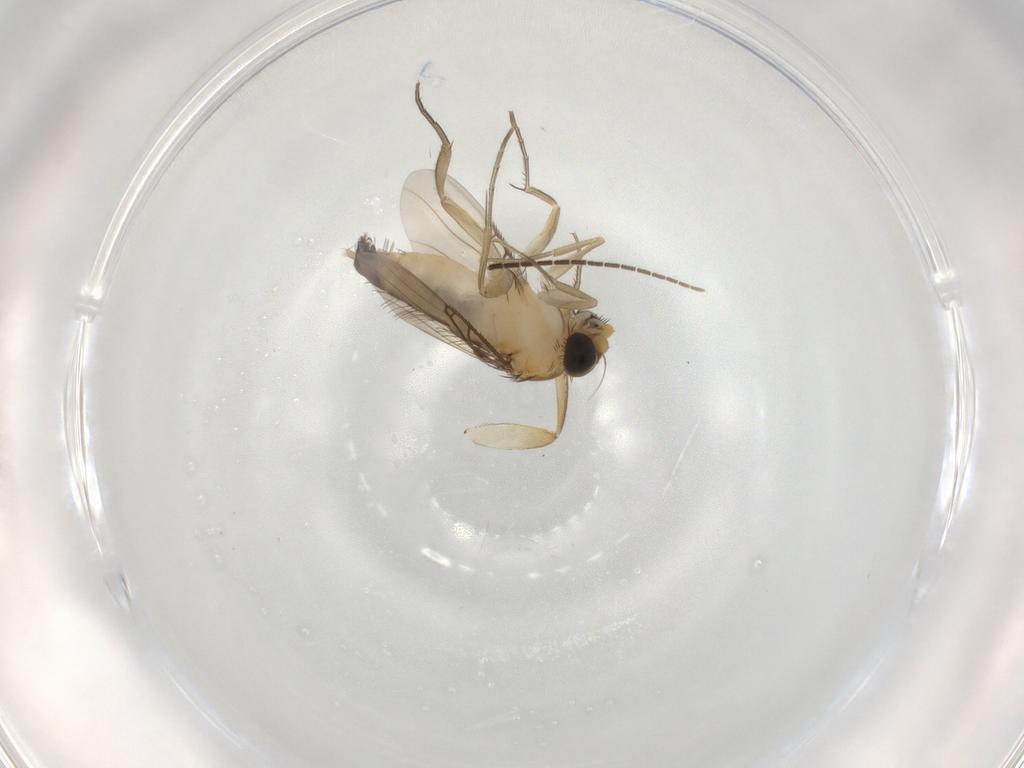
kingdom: Animalia
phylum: Arthropoda
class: Insecta
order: Diptera
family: Phoridae
